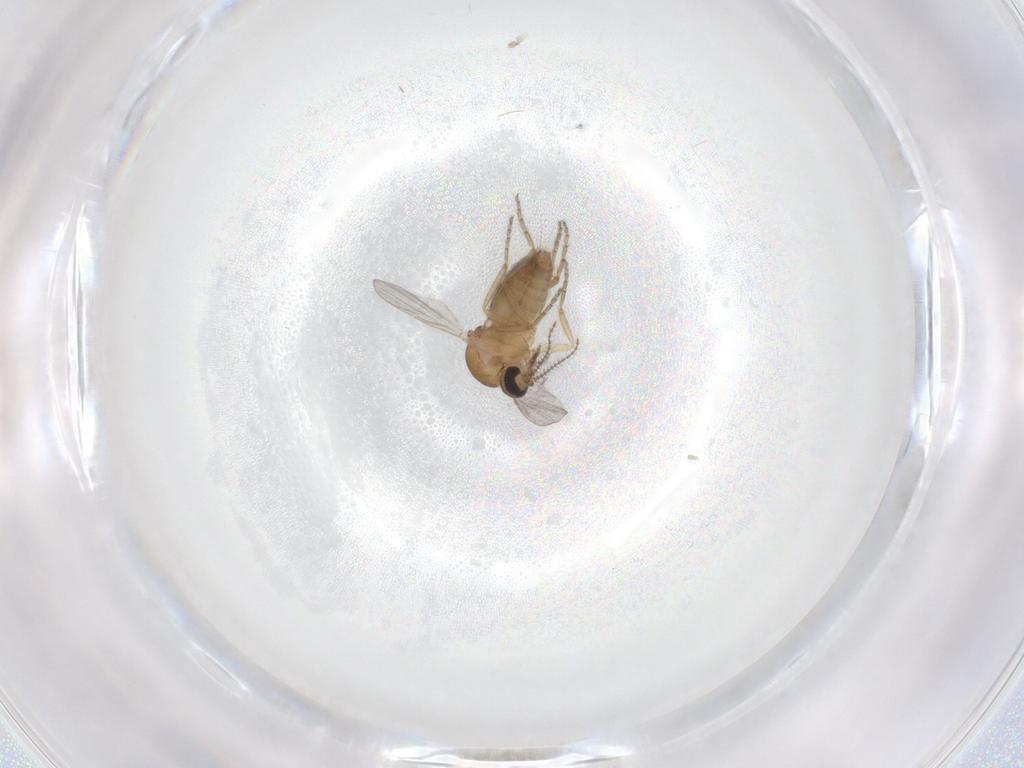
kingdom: Animalia
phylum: Arthropoda
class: Insecta
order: Diptera
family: Ceratopogonidae
